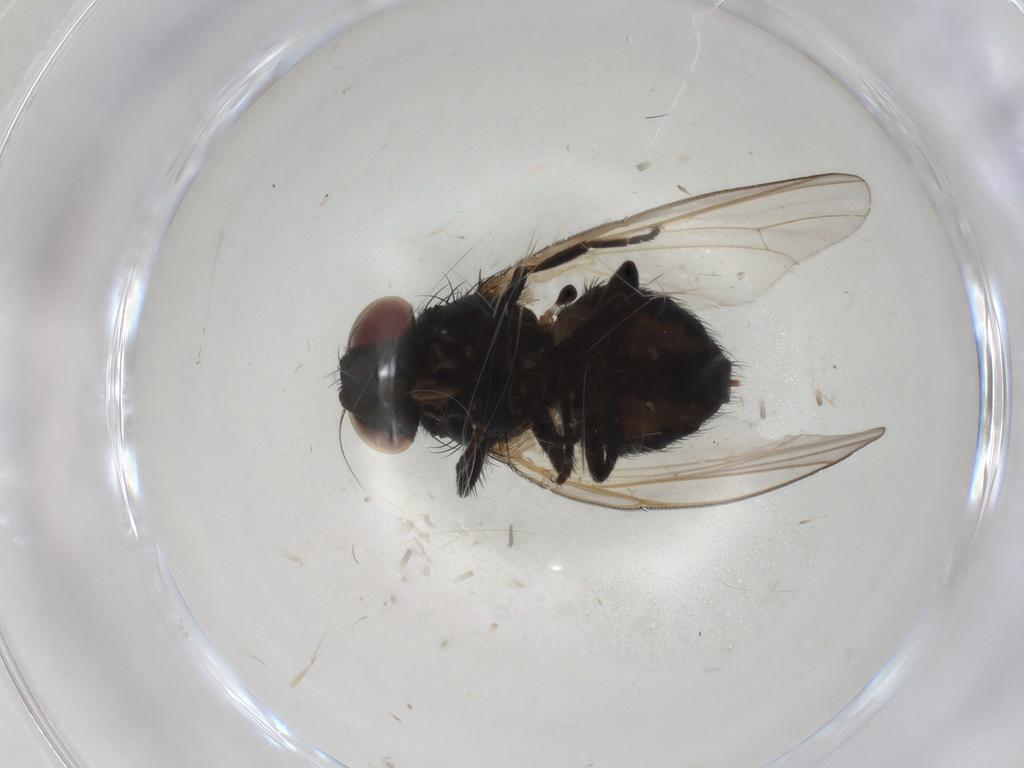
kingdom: Animalia
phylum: Arthropoda
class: Insecta
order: Diptera
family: Lonchaeidae
